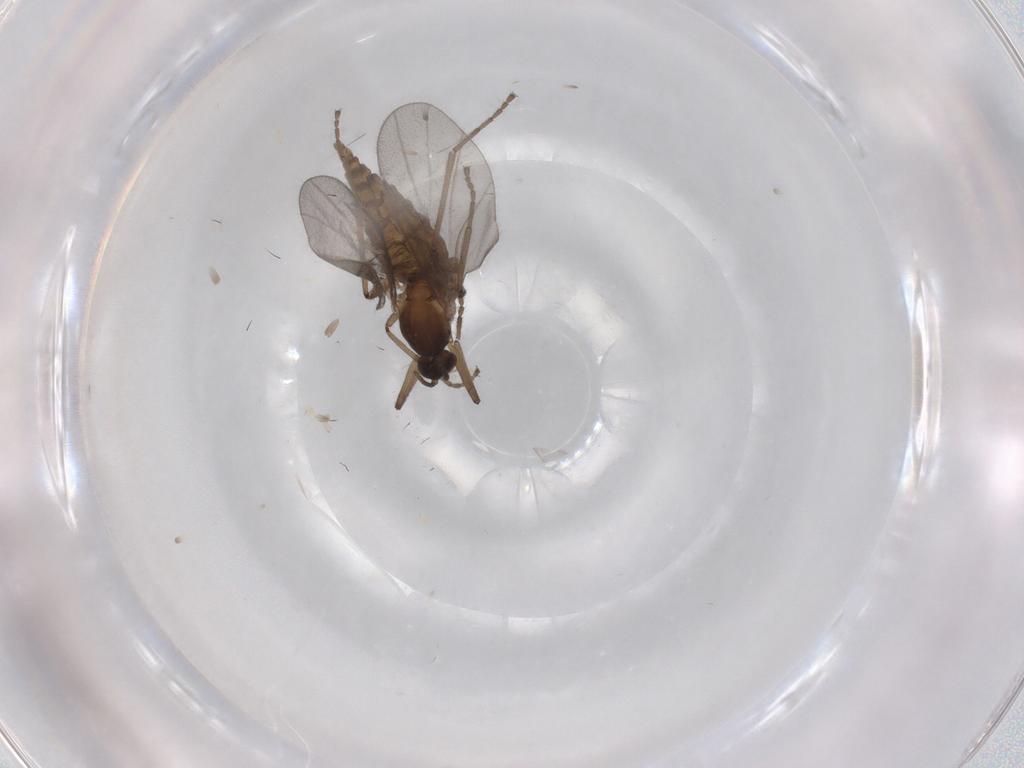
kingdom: Animalia
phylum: Arthropoda
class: Insecta
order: Diptera
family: Cecidomyiidae
